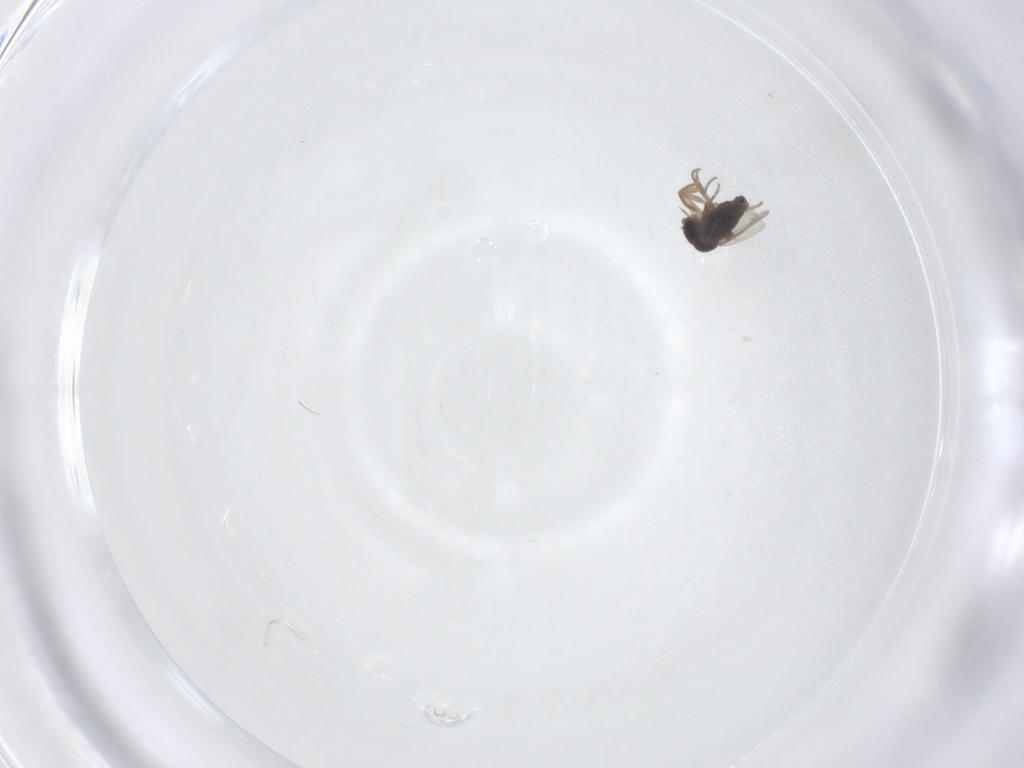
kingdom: Animalia
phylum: Arthropoda
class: Insecta
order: Diptera
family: Phoridae
